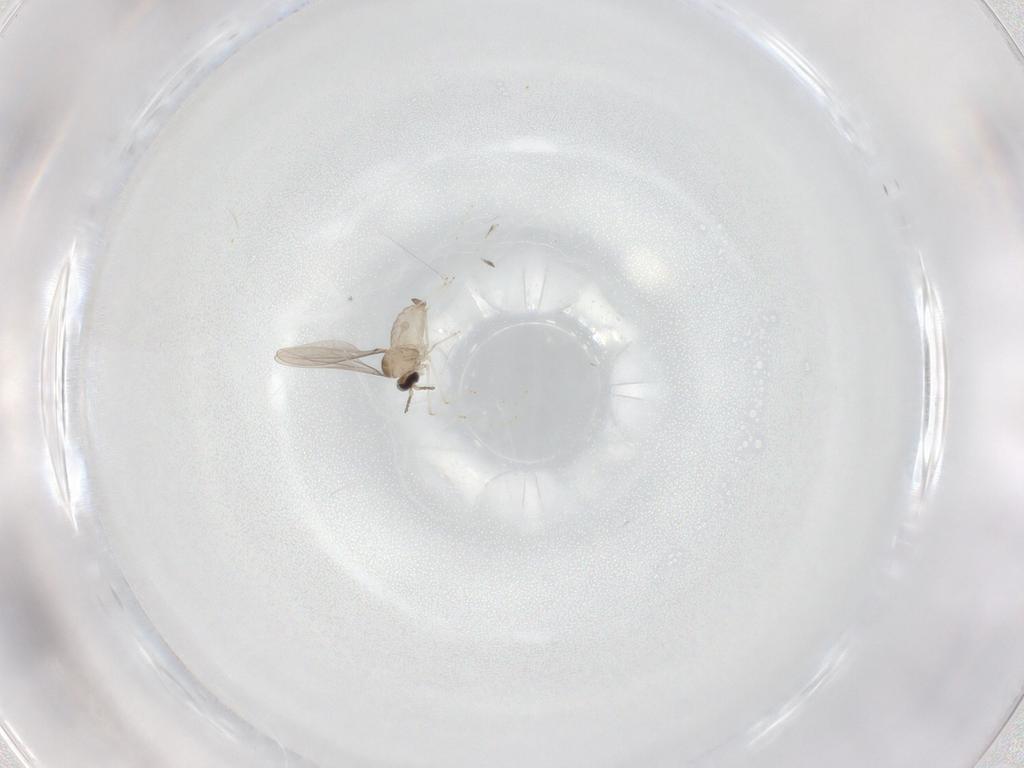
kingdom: Animalia
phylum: Arthropoda
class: Insecta
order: Diptera
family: Cecidomyiidae
